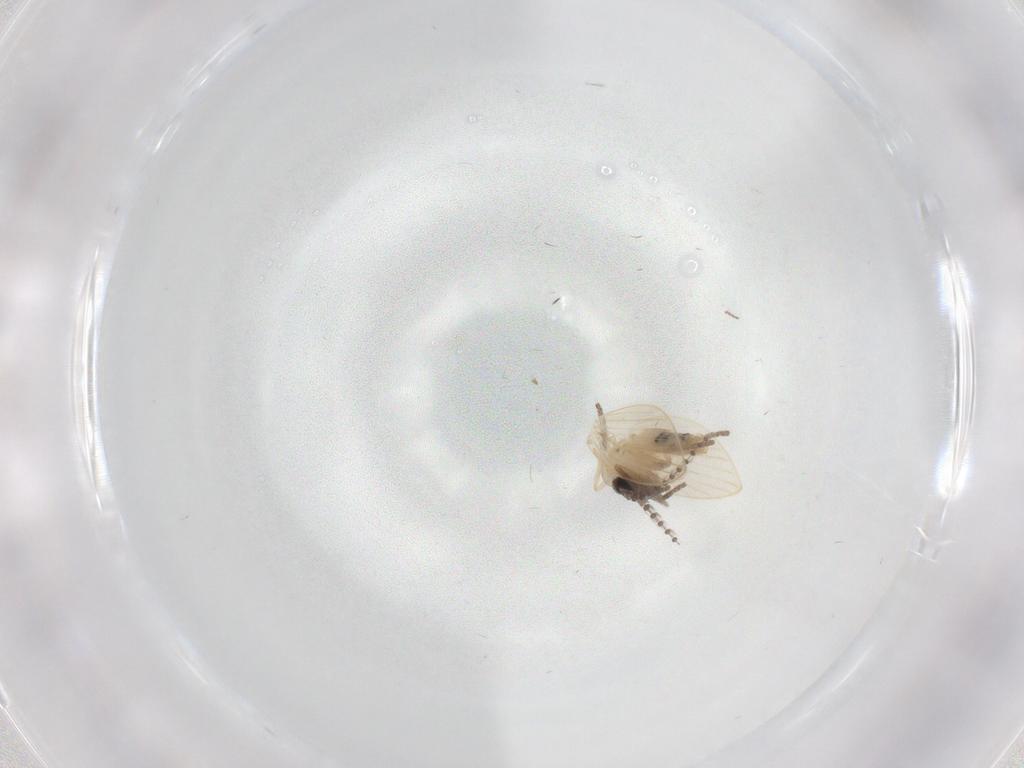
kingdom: Animalia
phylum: Arthropoda
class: Insecta
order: Diptera
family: Psychodidae
